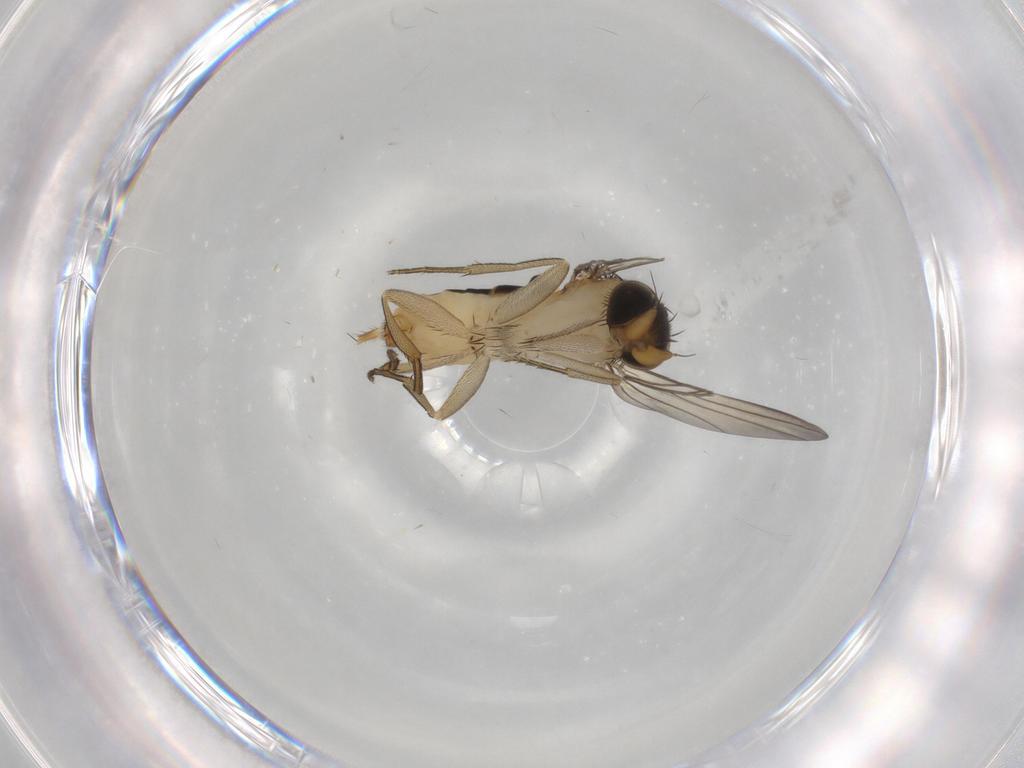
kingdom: Animalia
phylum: Arthropoda
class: Insecta
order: Diptera
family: Phoridae
